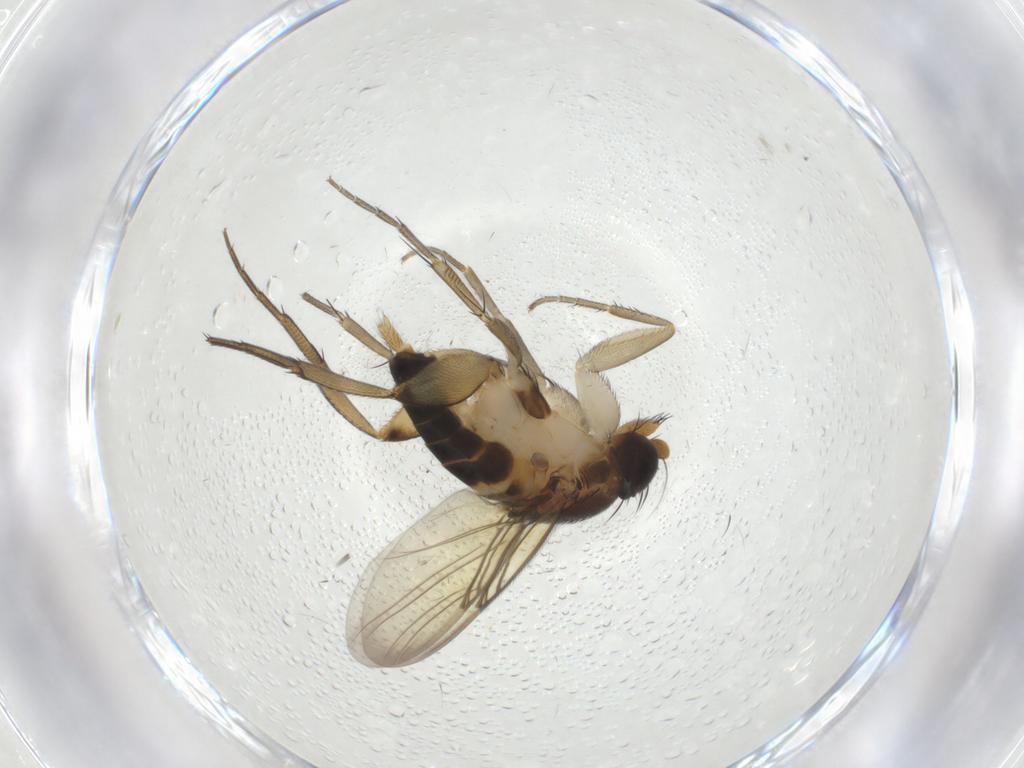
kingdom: Animalia
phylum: Arthropoda
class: Insecta
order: Diptera
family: Phoridae
